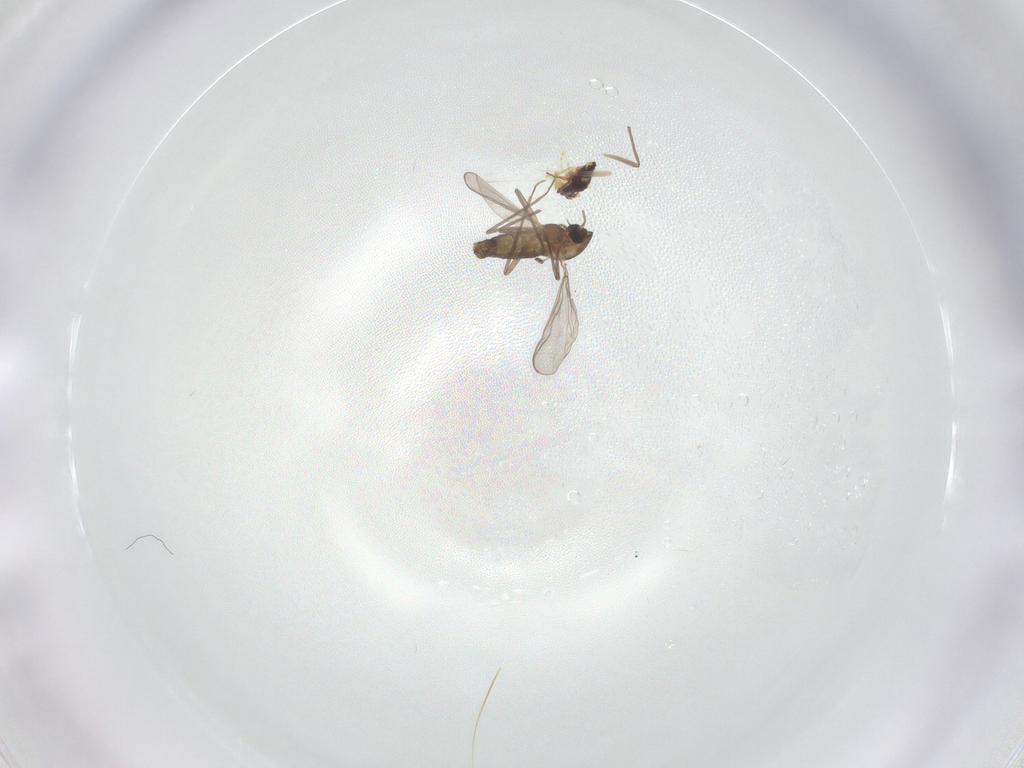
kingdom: Animalia
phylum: Arthropoda
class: Insecta
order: Diptera
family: Chironomidae
